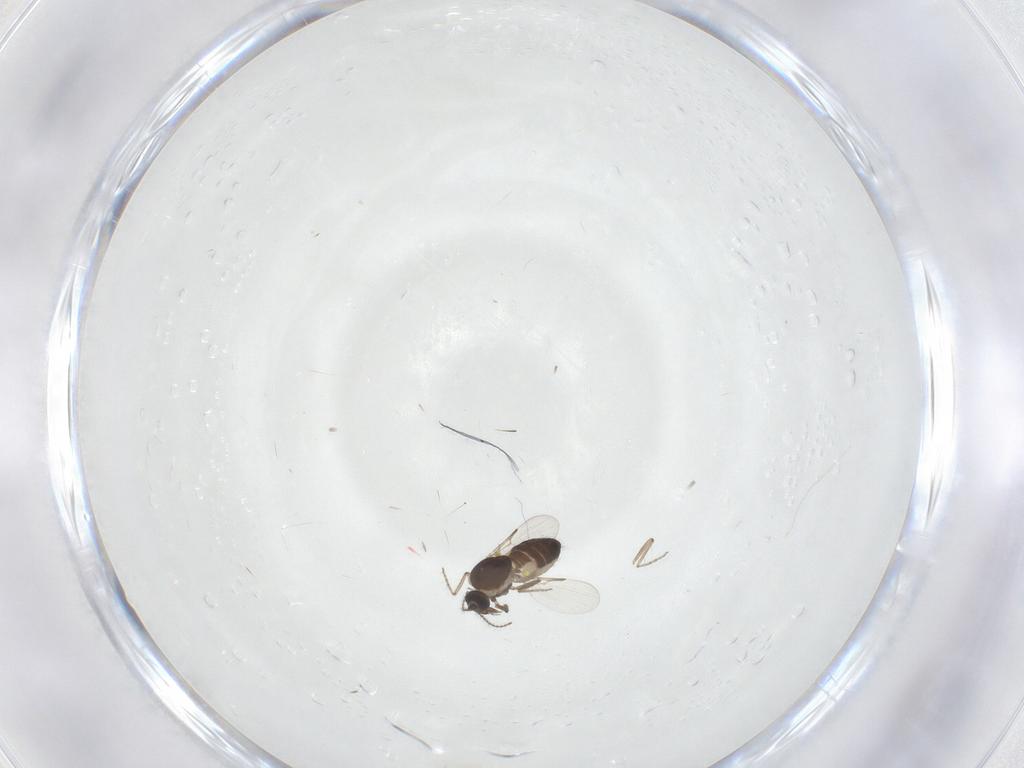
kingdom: Animalia
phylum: Arthropoda
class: Insecta
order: Diptera
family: Ceratopogonidae
